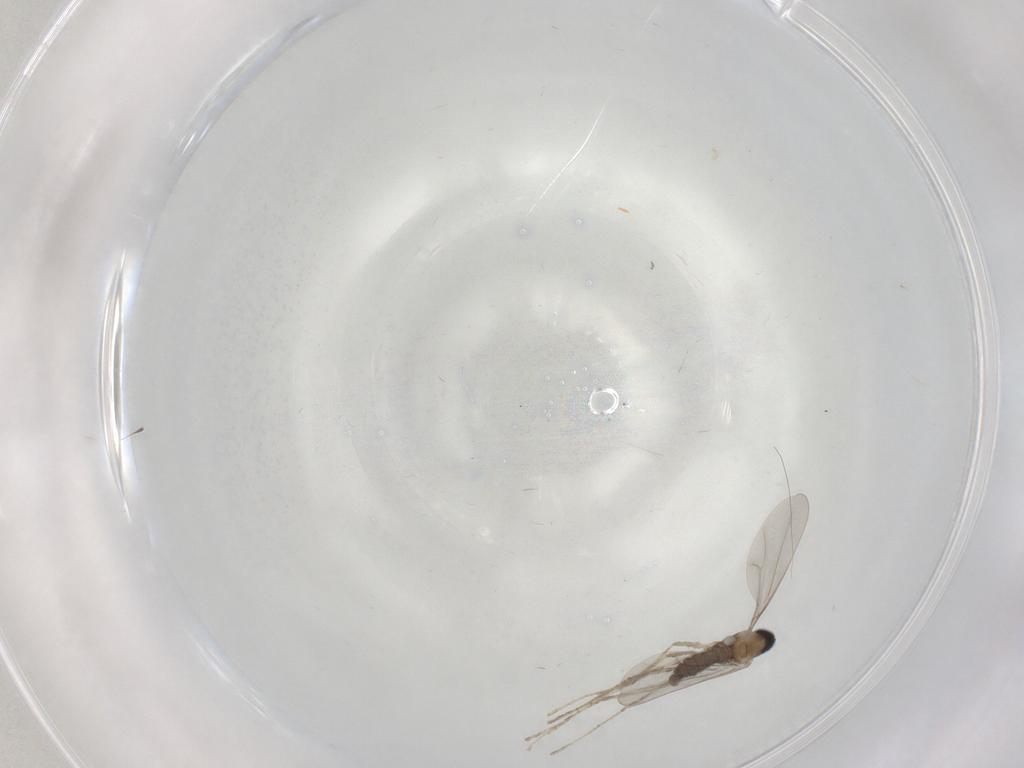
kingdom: Animalia
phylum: Arthropoda
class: Insecta
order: Diptera
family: Cecidomyiidae
